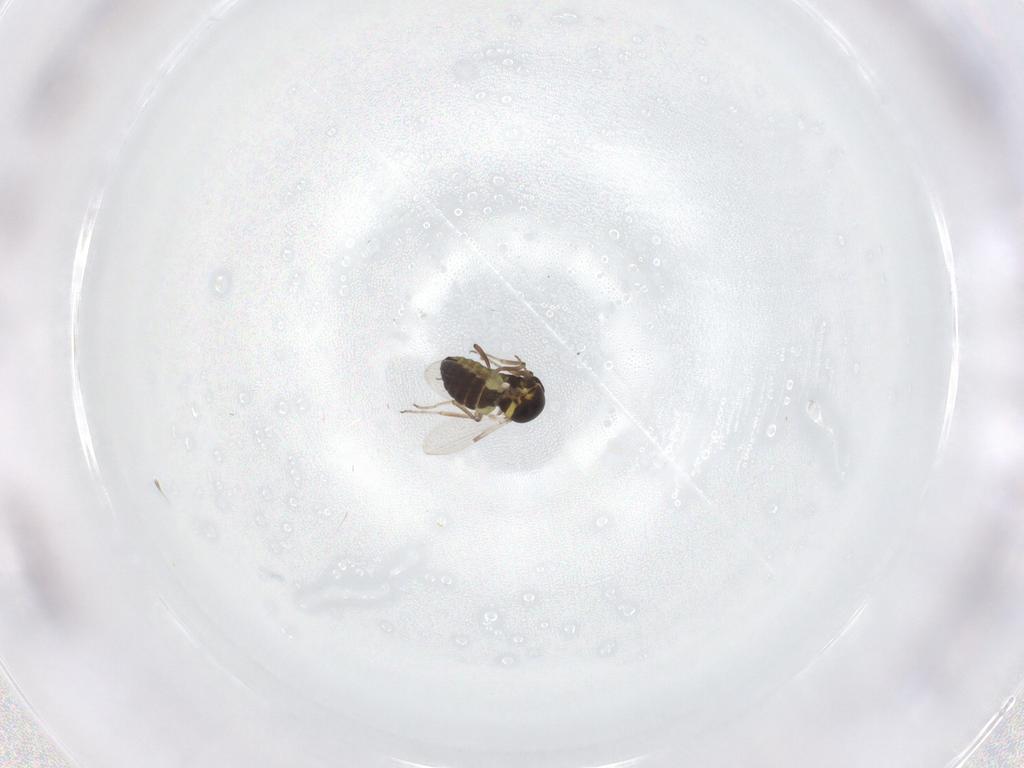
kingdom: Animalia
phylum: Arthropoda
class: Insecta
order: Diptera
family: Ceratopogonidae
